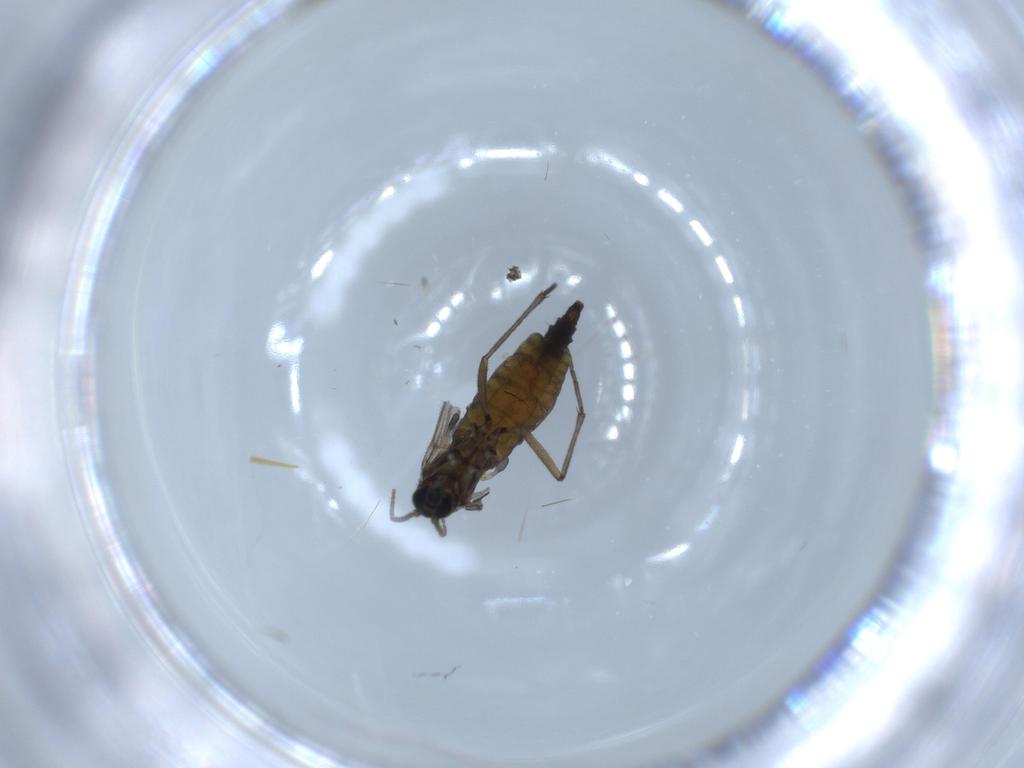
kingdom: Animalia
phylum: Arthropoda
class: Insecta
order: Diptera
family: Sciaridae
